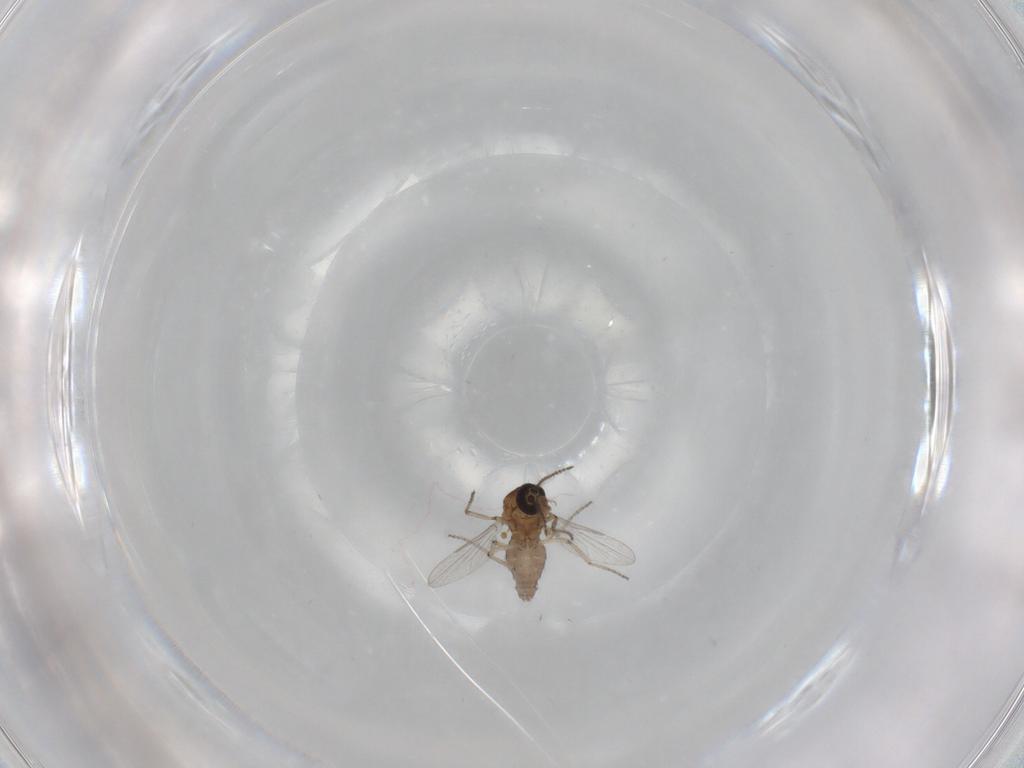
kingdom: Animalia
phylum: Arthropoda
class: Insecta
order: Diptera
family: Ceratopogonidae
